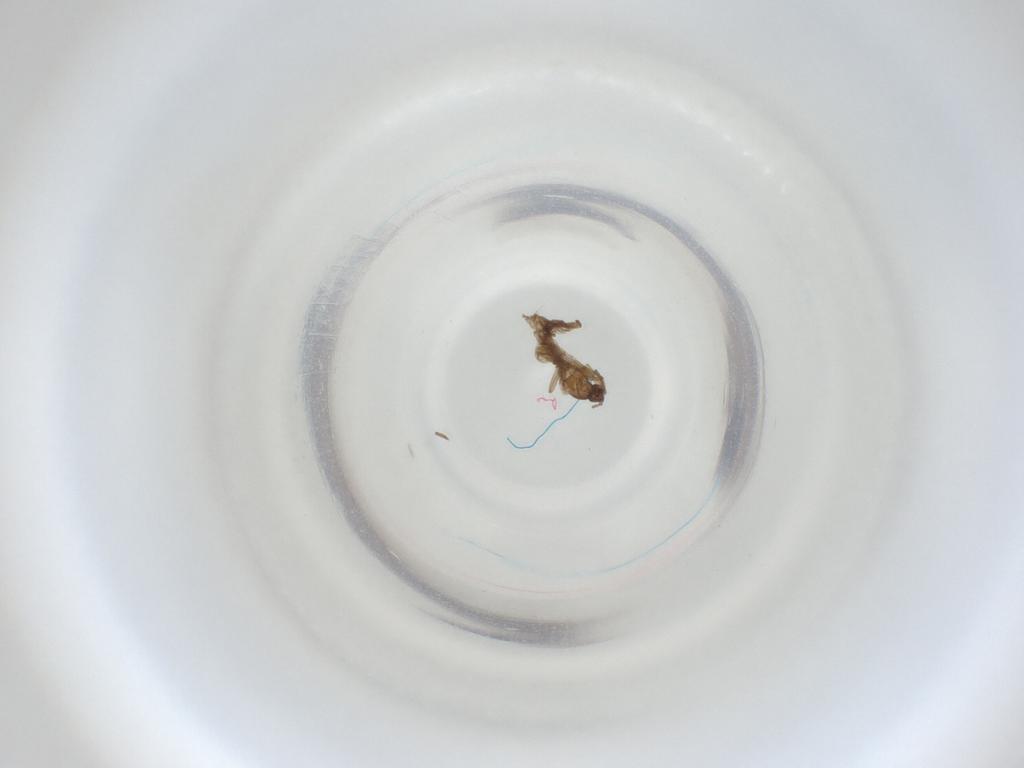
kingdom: Animalia
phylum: Arthropoda
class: Insecta
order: Diptera
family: Cecidomyiidae
